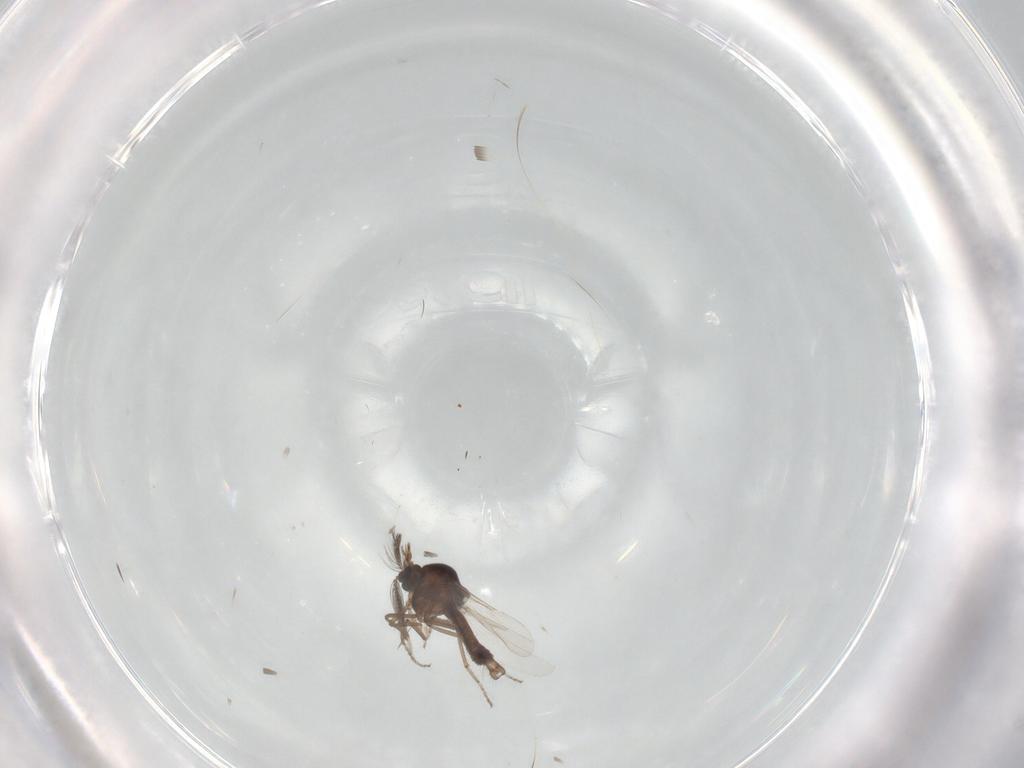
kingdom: Animalia
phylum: Arthropoda
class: Insecta
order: Diptera
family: Ceratopogonidae
